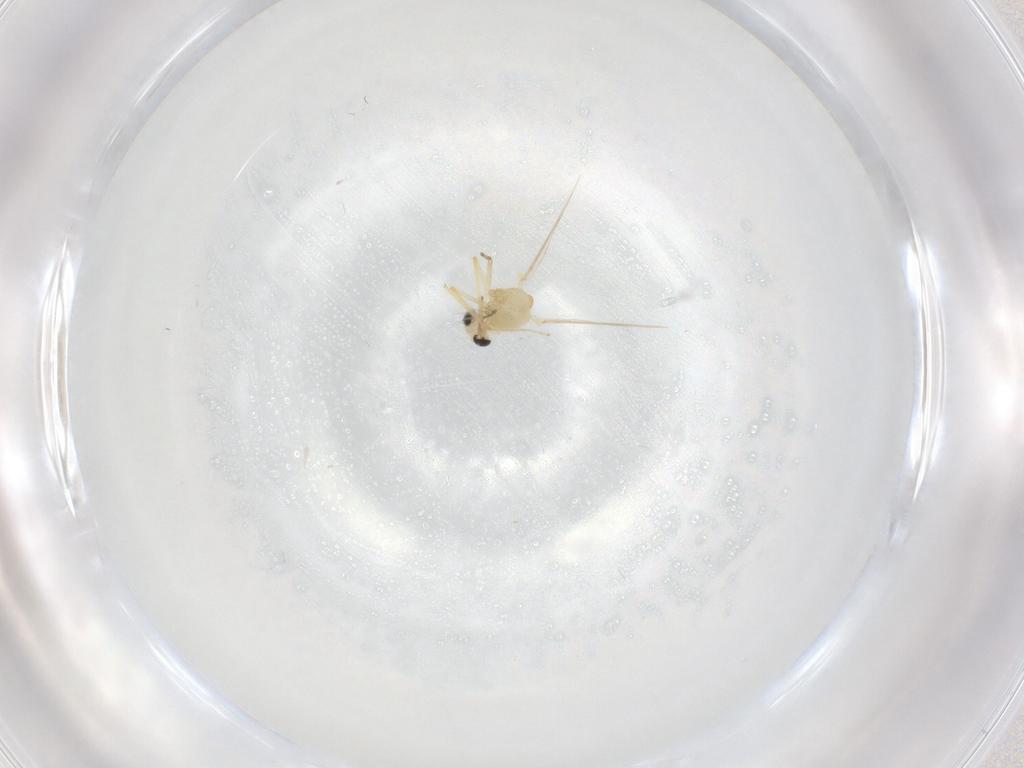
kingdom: Animalia
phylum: Arthropoda
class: Insecta
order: Diptera
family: Chironomidae
